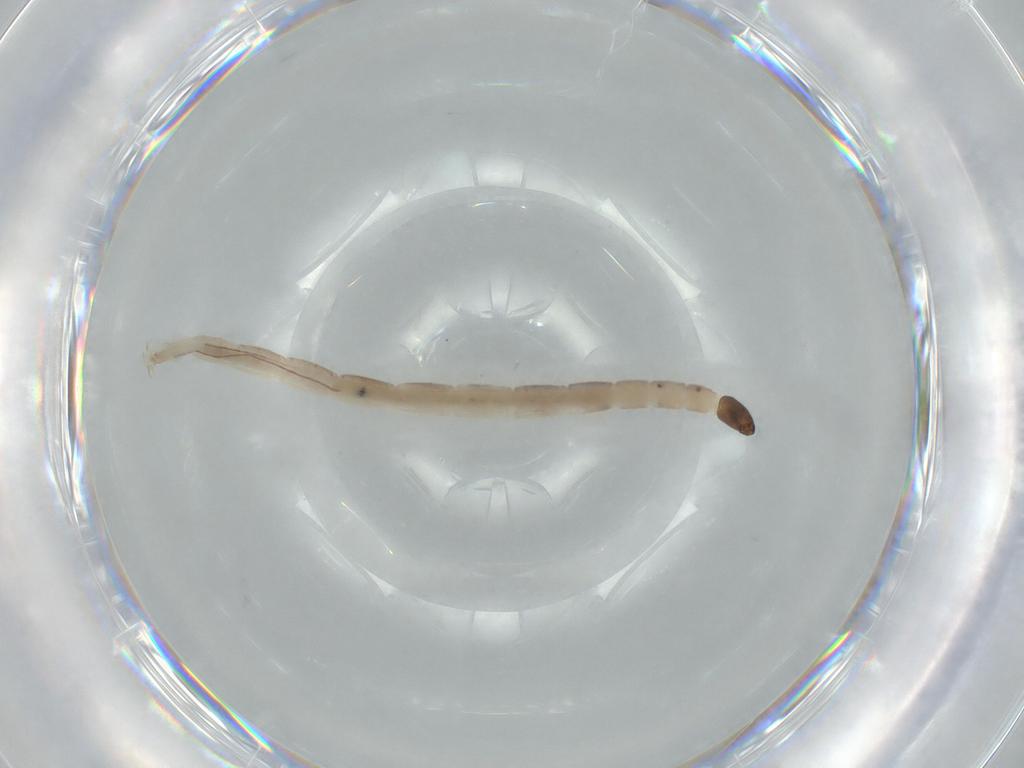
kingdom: Animalia
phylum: Arthropoda
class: Insecta
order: Diptera
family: Ceratopogonidae
